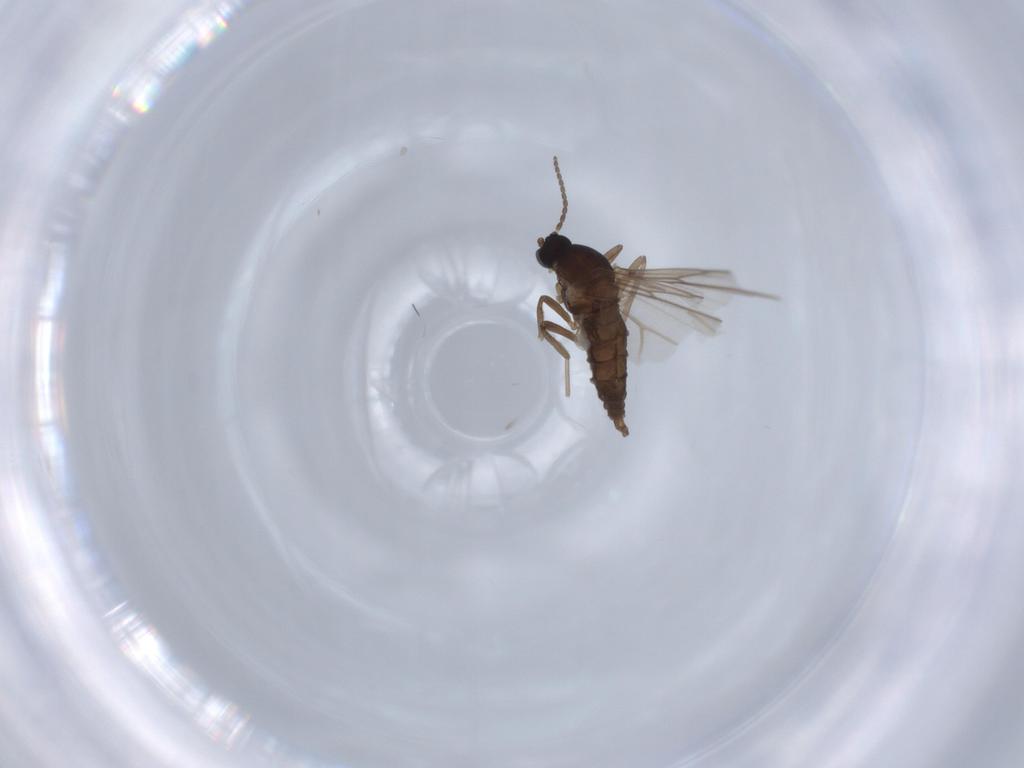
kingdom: Animalia
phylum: Arthropoda
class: Insecta
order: Diptera
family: Cecidomyiidae
